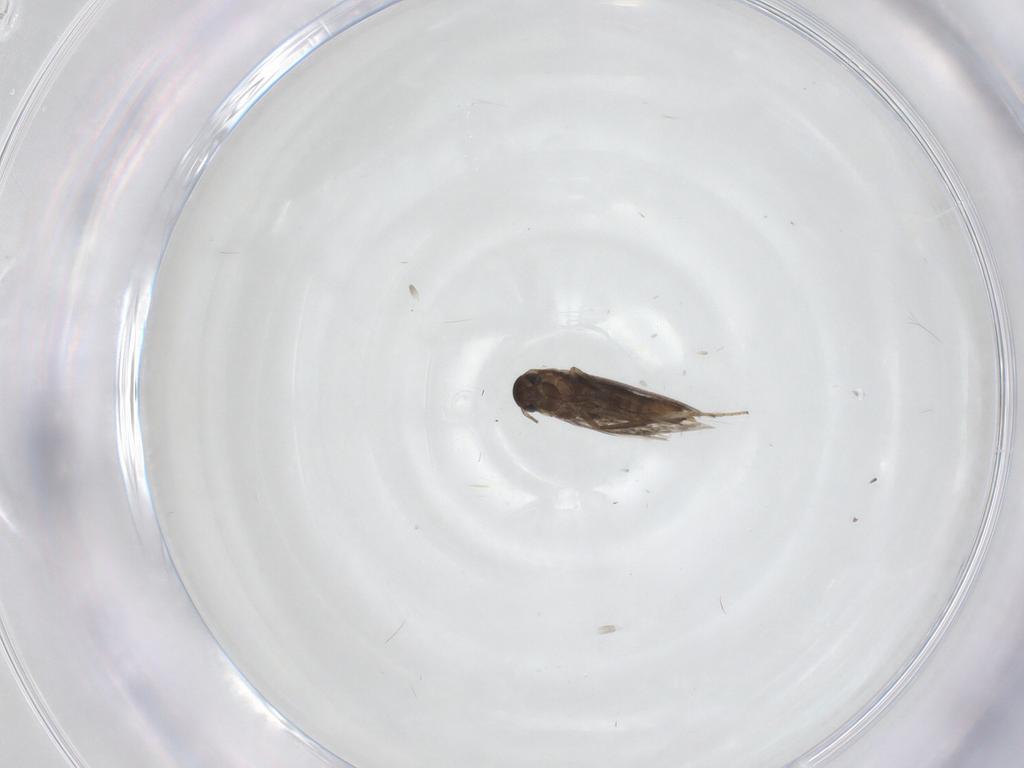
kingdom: Animalia
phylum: Arthropoda
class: Insecta
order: Lepidoptera
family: Heliozelidae
